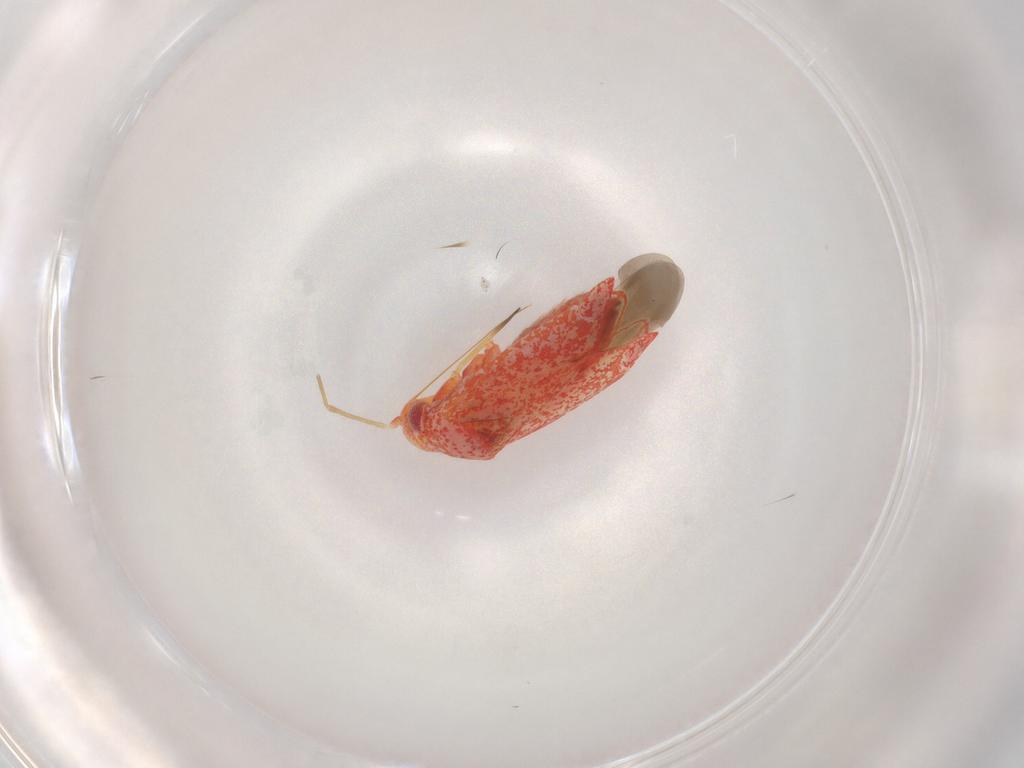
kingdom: Animalia
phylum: Arthropoda
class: Insecta
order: Hemiptera
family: Miridae
